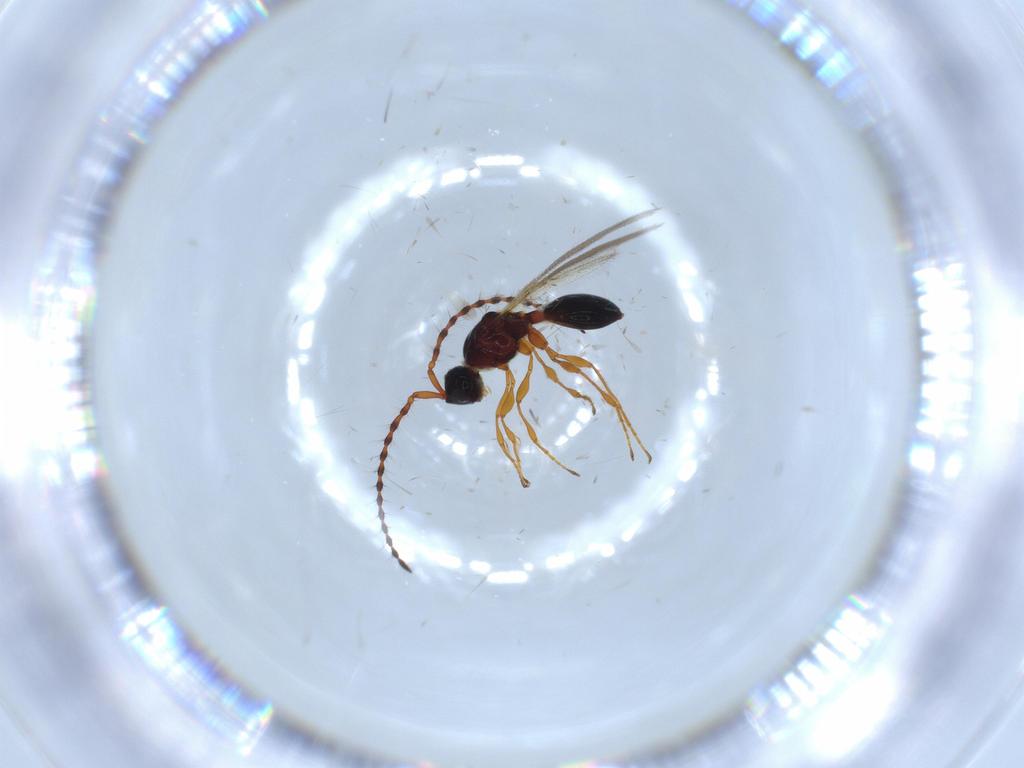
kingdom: Animalia
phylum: Arthropoda
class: Insecta
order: Hymenoptera
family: Diapriidae
